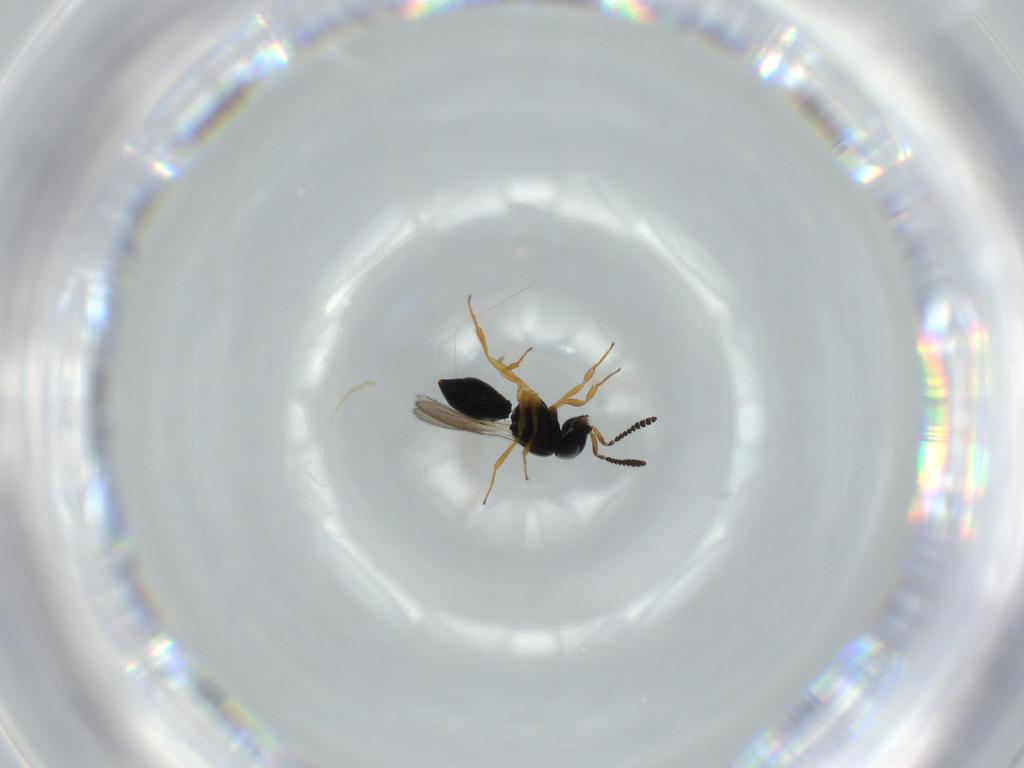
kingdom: Animalia
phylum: Arthropoda
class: Insecta
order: Hymenoptera
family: Scelionidae
